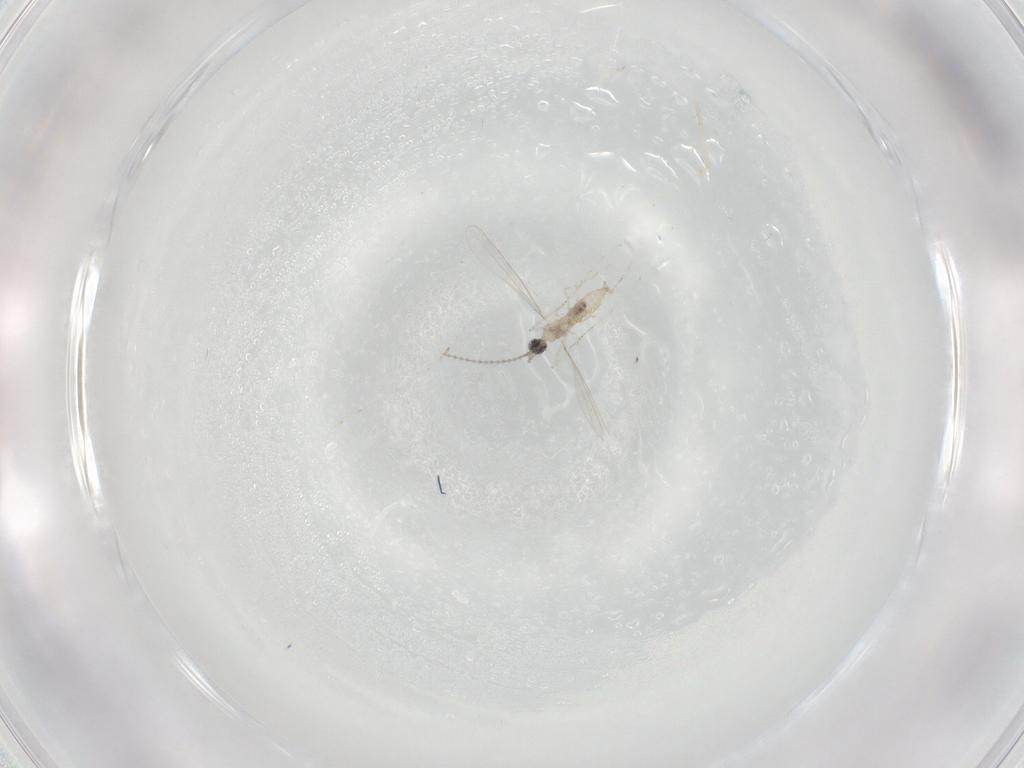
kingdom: Animalia
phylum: Arthropoda
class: Insecta
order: Diptera
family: Cecidomyiidae
